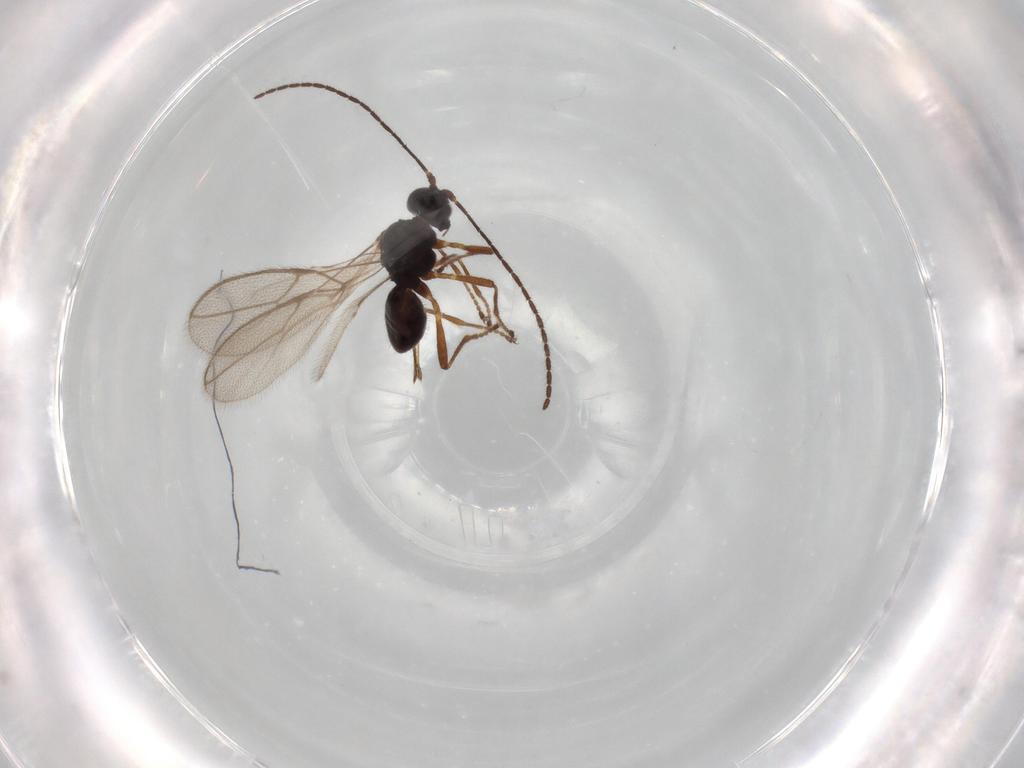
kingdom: Animalia
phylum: Arthropoda
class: Insecta
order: Hymenoptera
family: Braconidae
